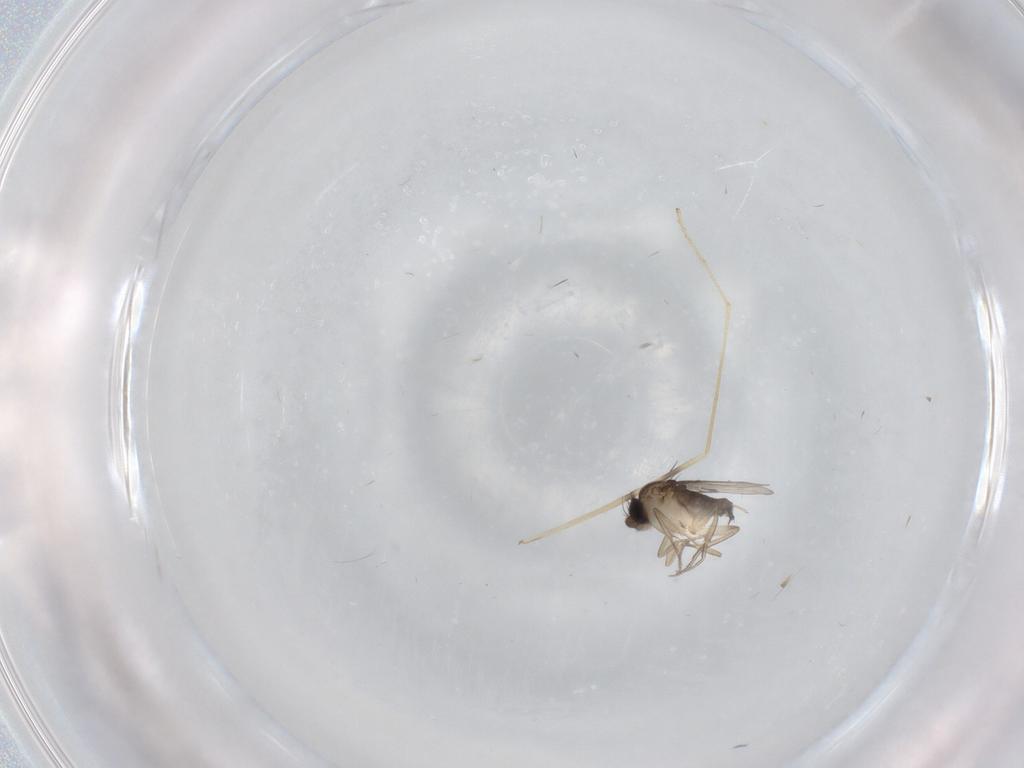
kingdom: Animalia
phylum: Arthropoda
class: Insecta
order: Diptera
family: Limoniidae
